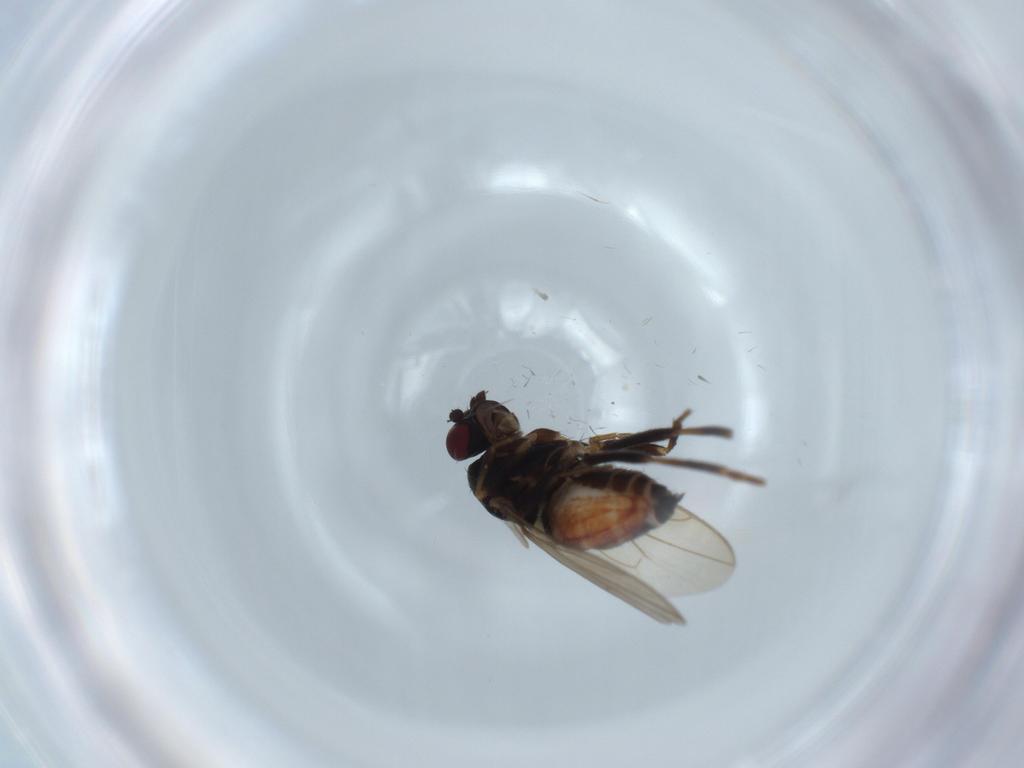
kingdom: Animalia
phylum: Arthropoda
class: Insecta
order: Diptera
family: Sphaeroceridae
